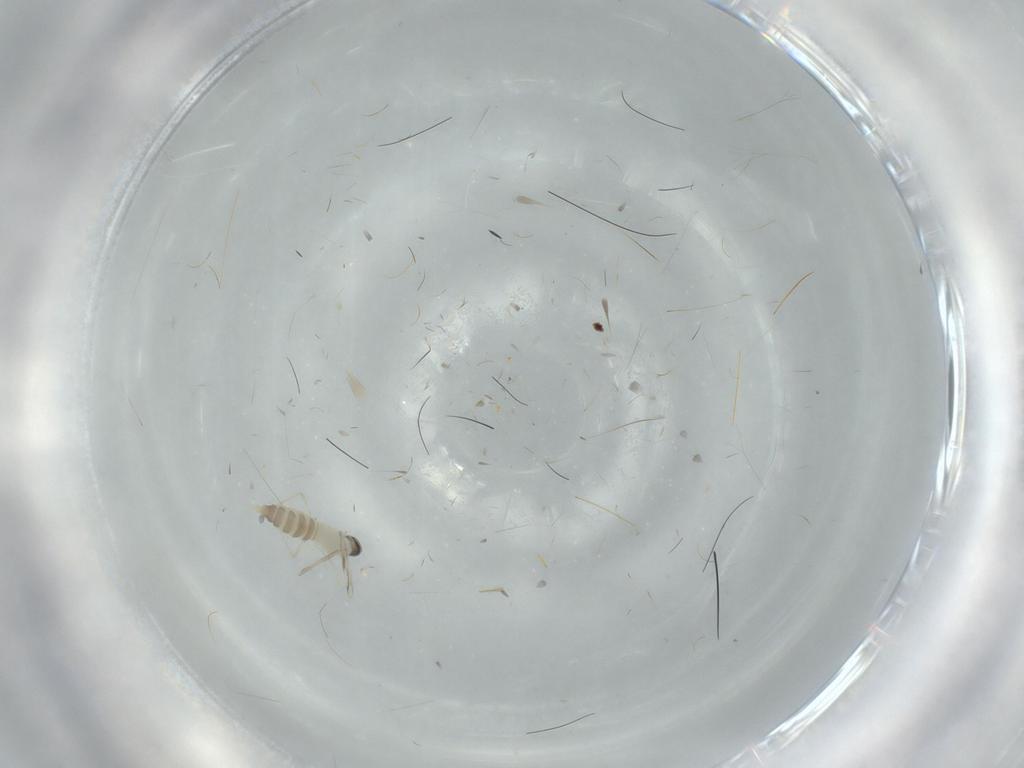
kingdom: Animalia
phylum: Arthropoda
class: Insecta
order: Diptera
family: Cecidomyiidae
